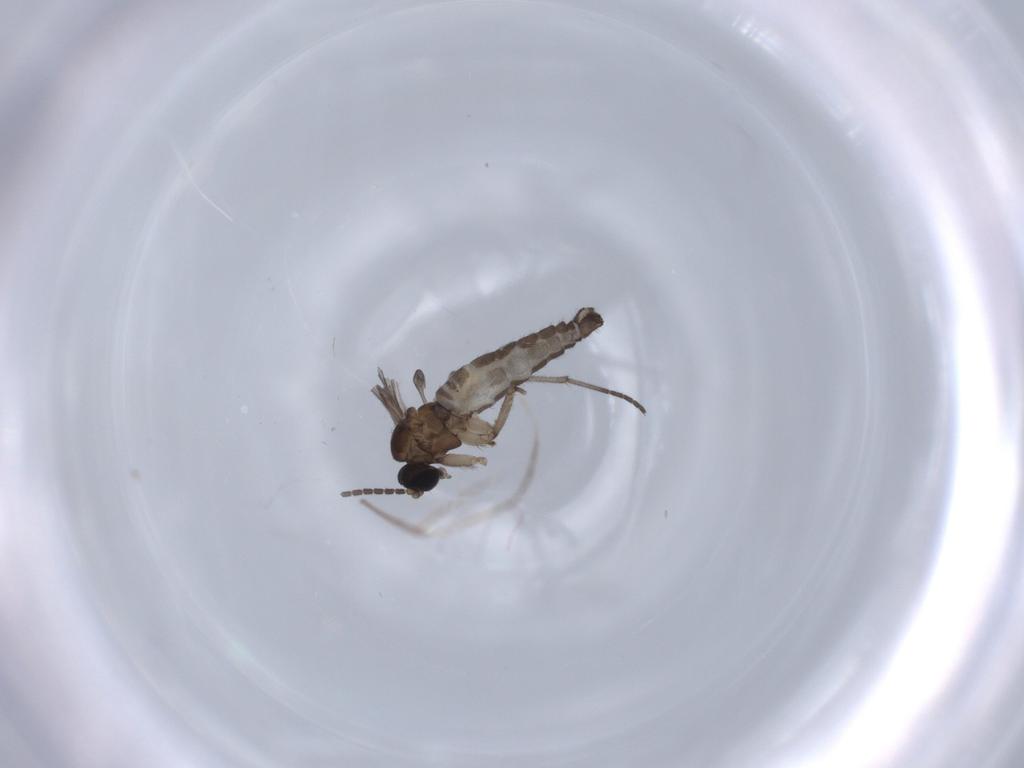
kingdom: Animalia
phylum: Arthropoda
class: Insecta
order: Diptera
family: Sciaridae
